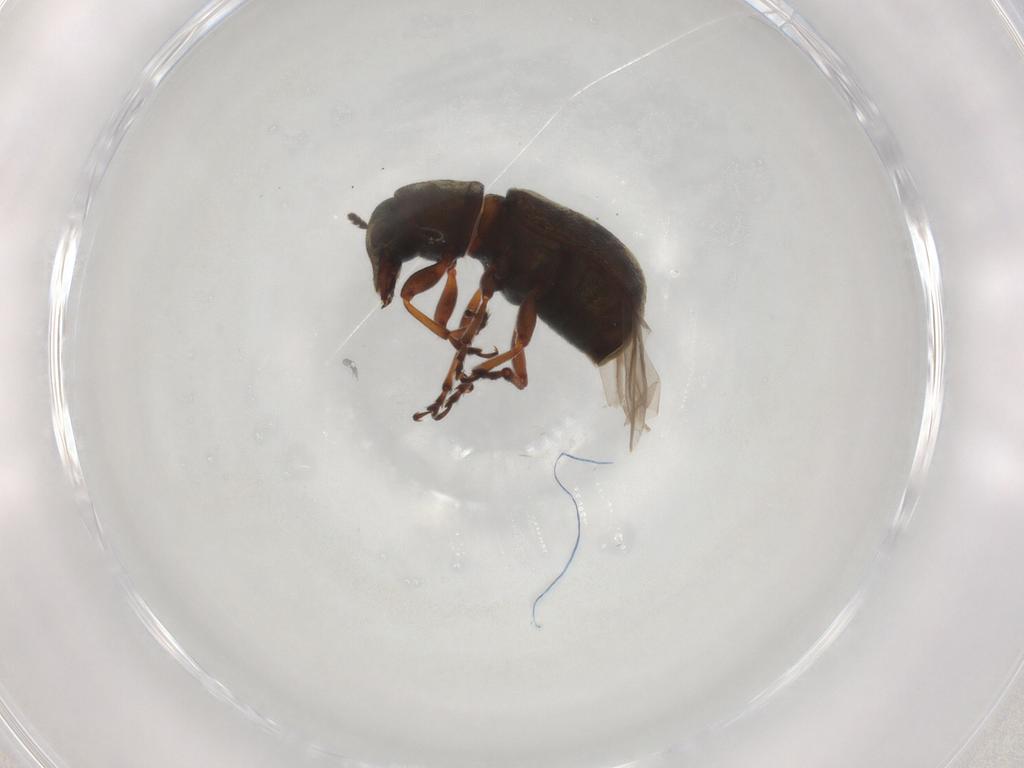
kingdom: Animalia
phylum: Arthropoda
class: Insecta
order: Coleoptera
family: Anthribidae
